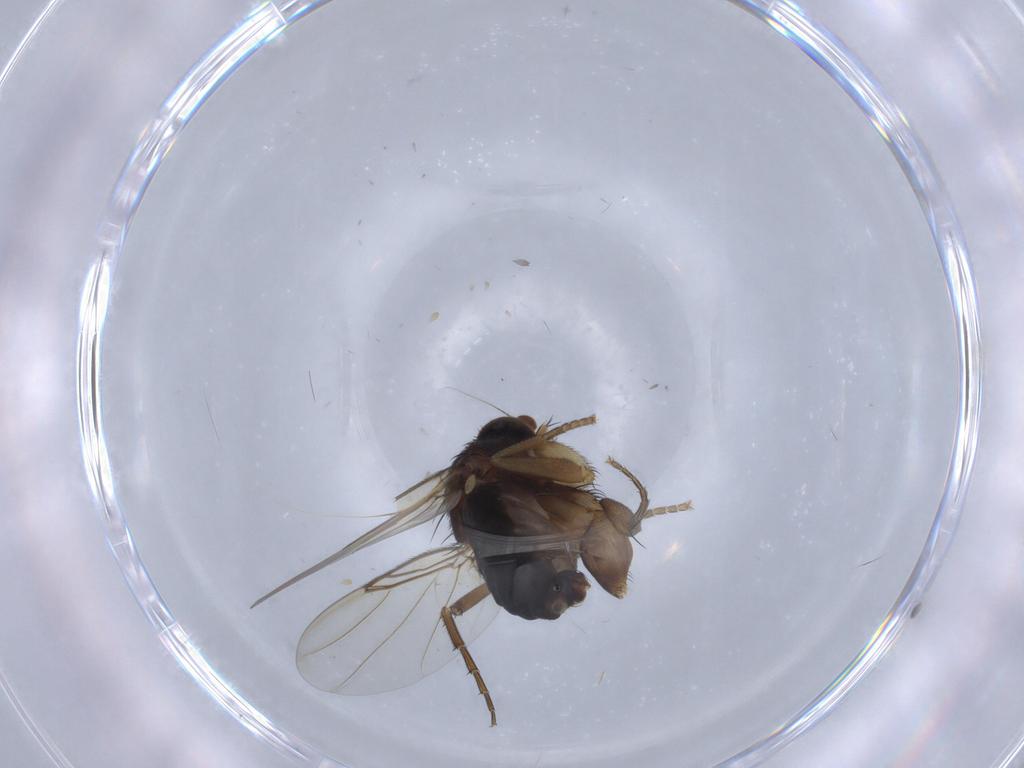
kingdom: Animalia
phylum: Arthropoda
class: Insecta
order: Diptera
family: Phoridae
